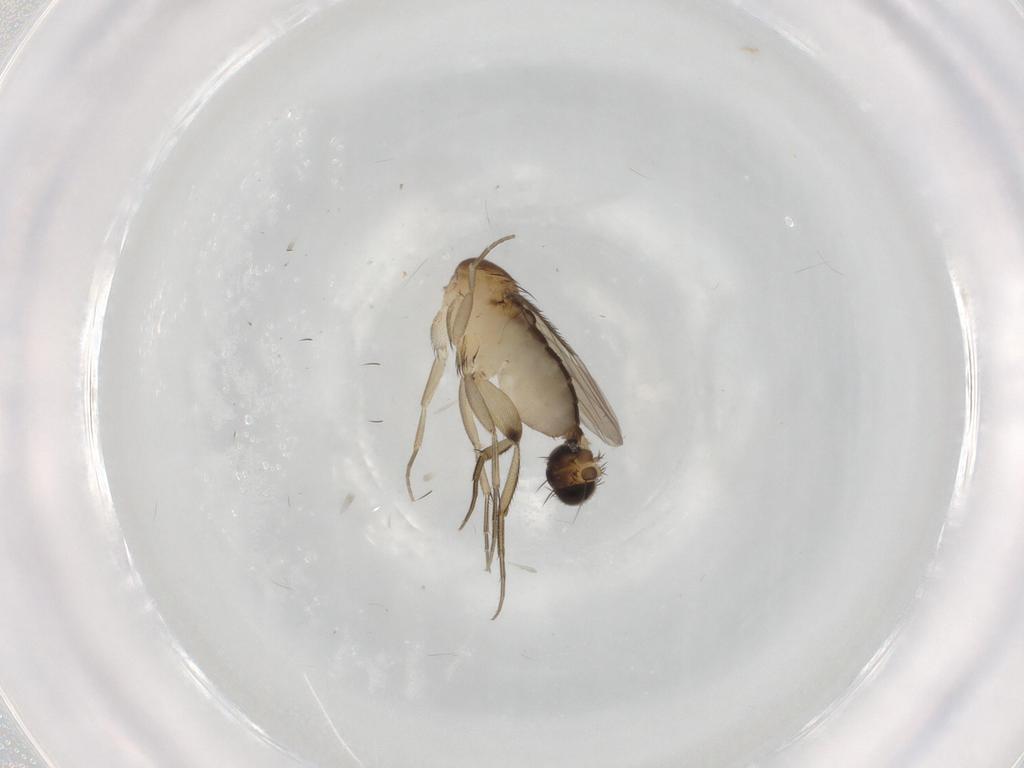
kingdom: Animalia
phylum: Arthropoda
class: Insecta
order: Diptera
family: Phoridae
